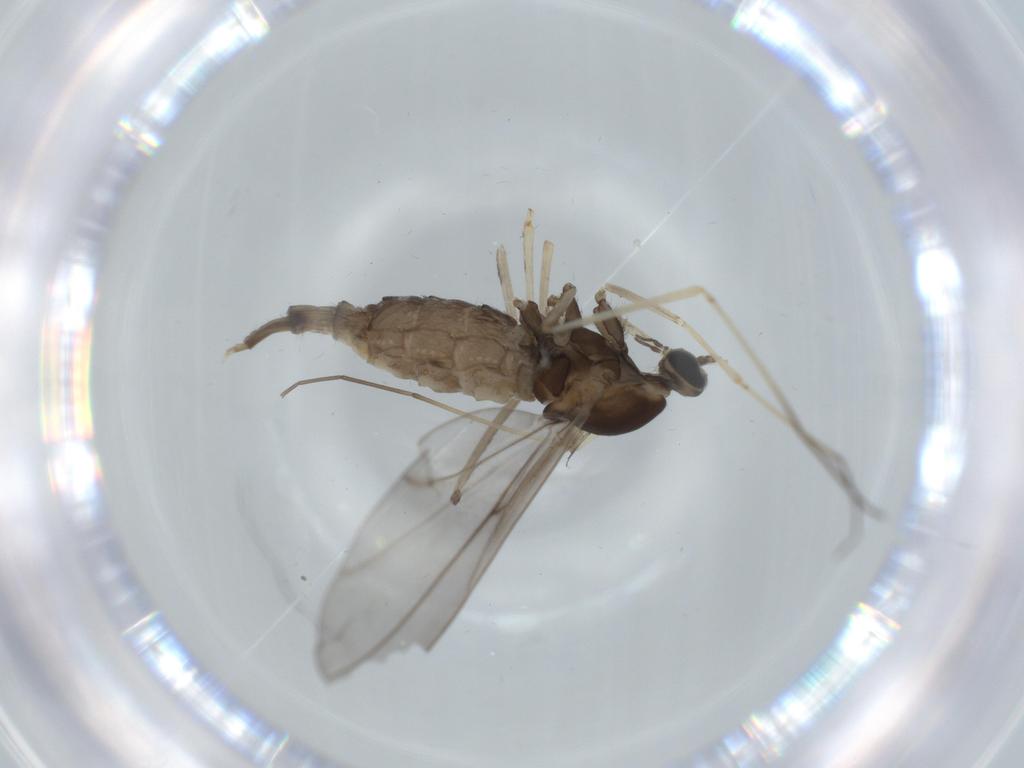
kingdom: Animalia
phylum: Arthropoda
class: Insecta
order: Diptera
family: Cecidomyiidae
